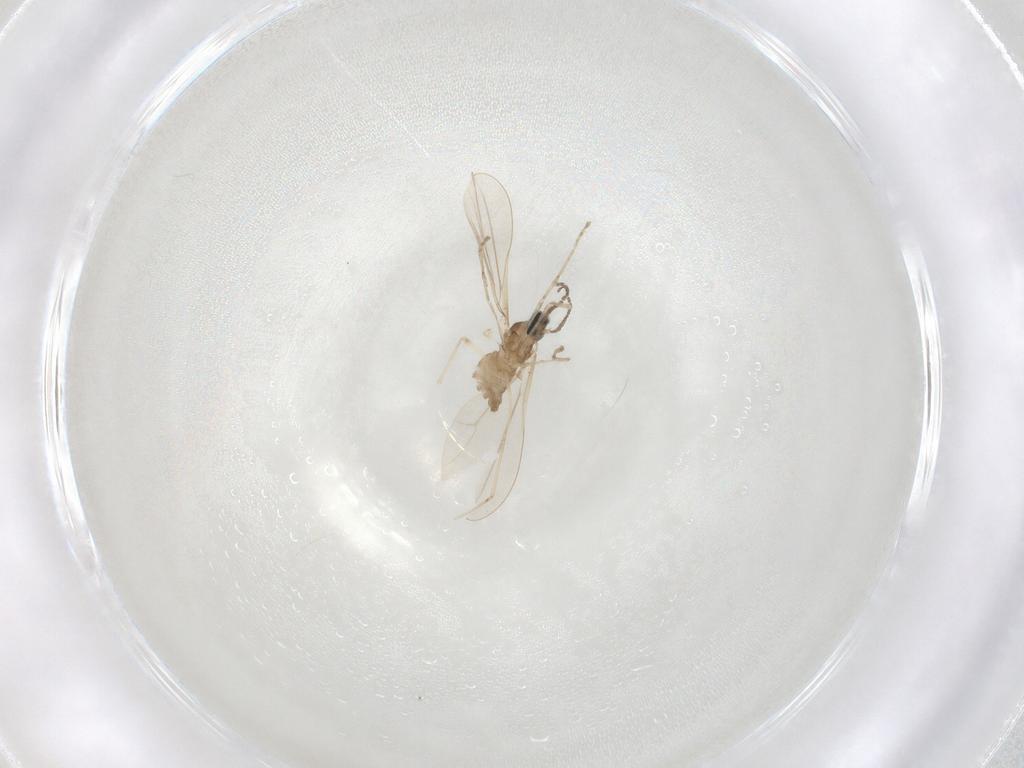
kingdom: Animalia
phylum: Arthropoda
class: Insecta
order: Diptera
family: Cecidomyiidae
